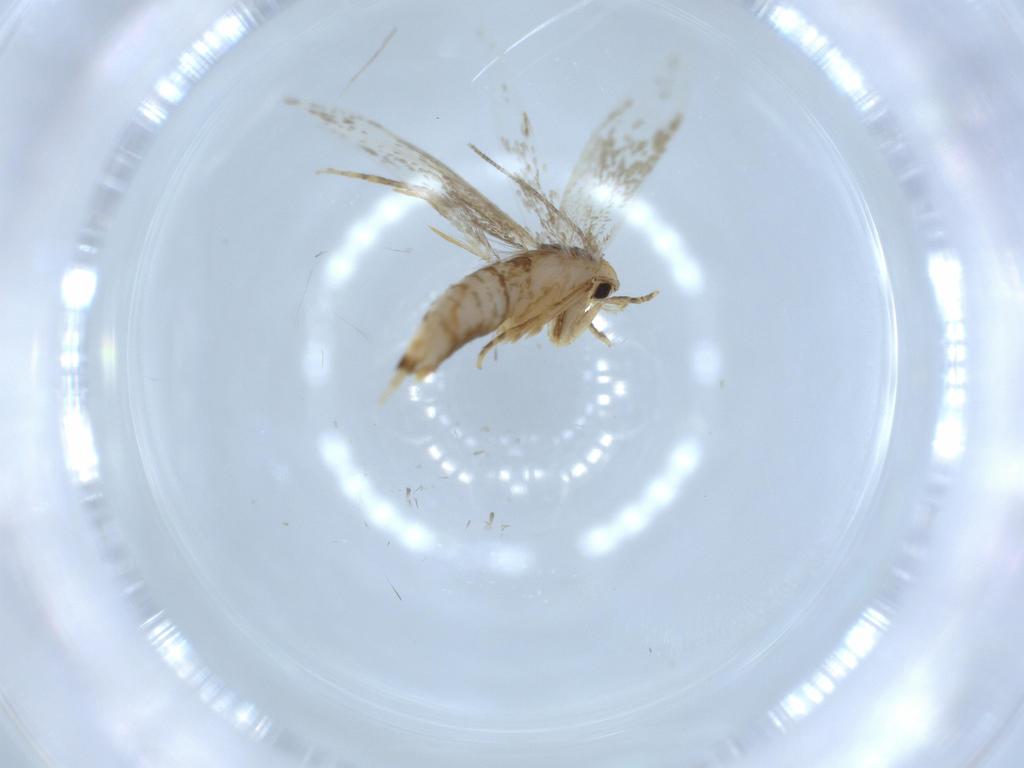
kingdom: Animalia
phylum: Arthropoda
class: Insecta
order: Lepidoptera
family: Tineidae
